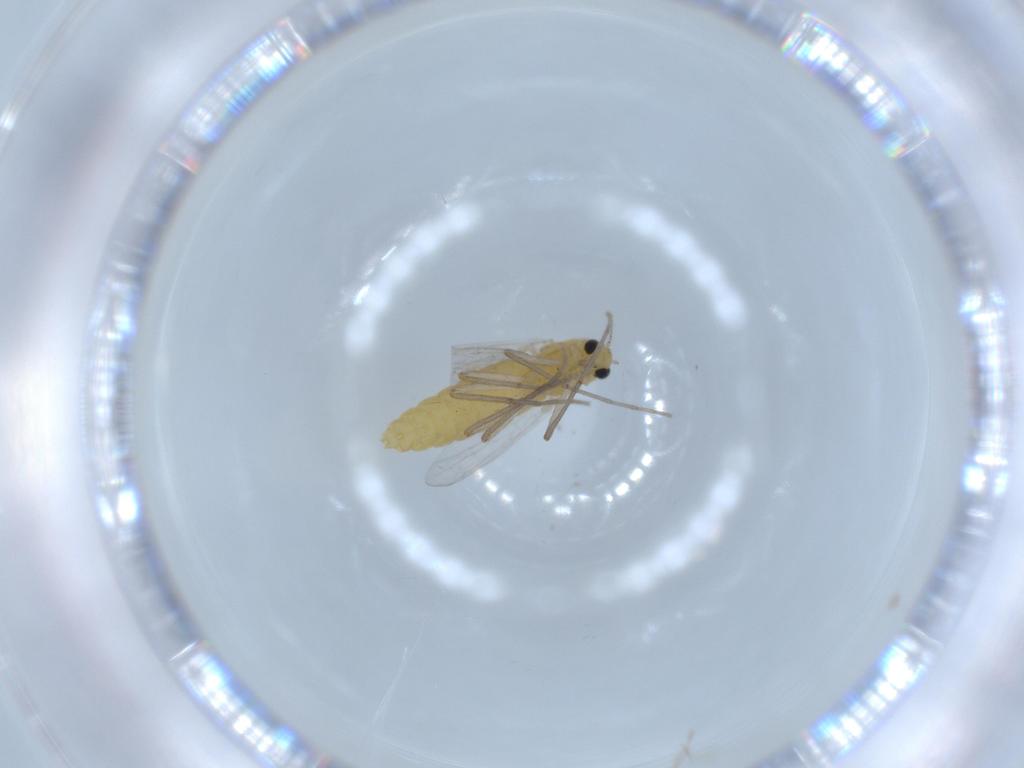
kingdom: Animalia
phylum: Arthropoda
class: Insecta
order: Diptera
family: Chironomidae
